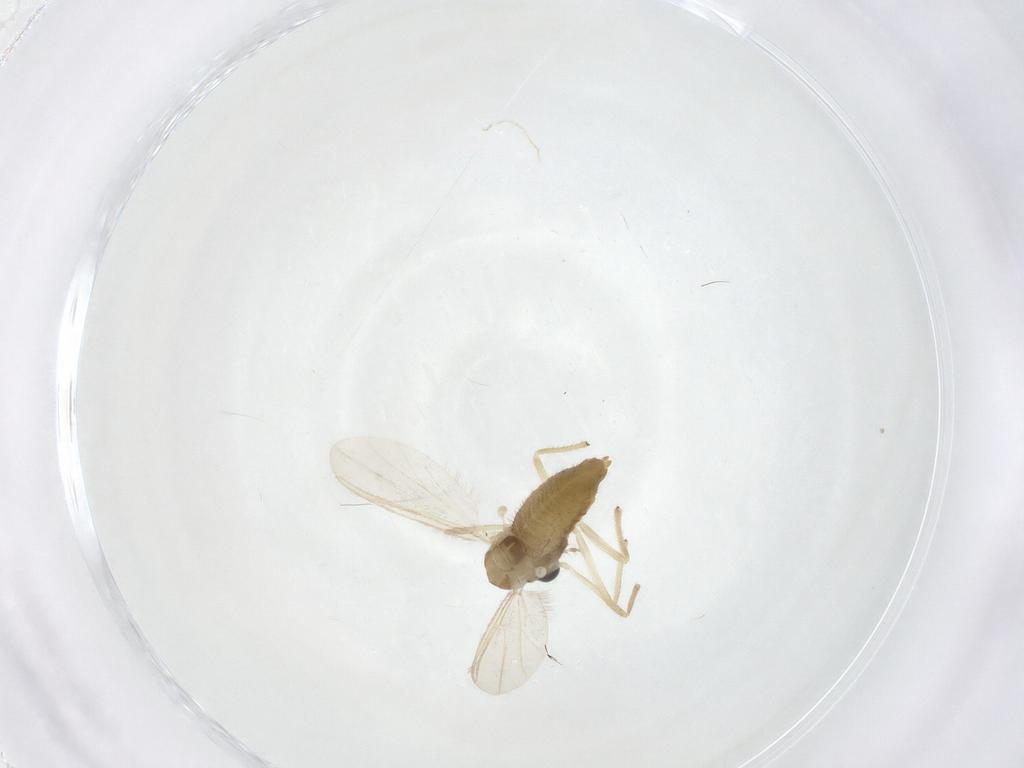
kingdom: Animalia
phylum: Arthropoda
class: Insecta
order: Diptera
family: Chironomidae
